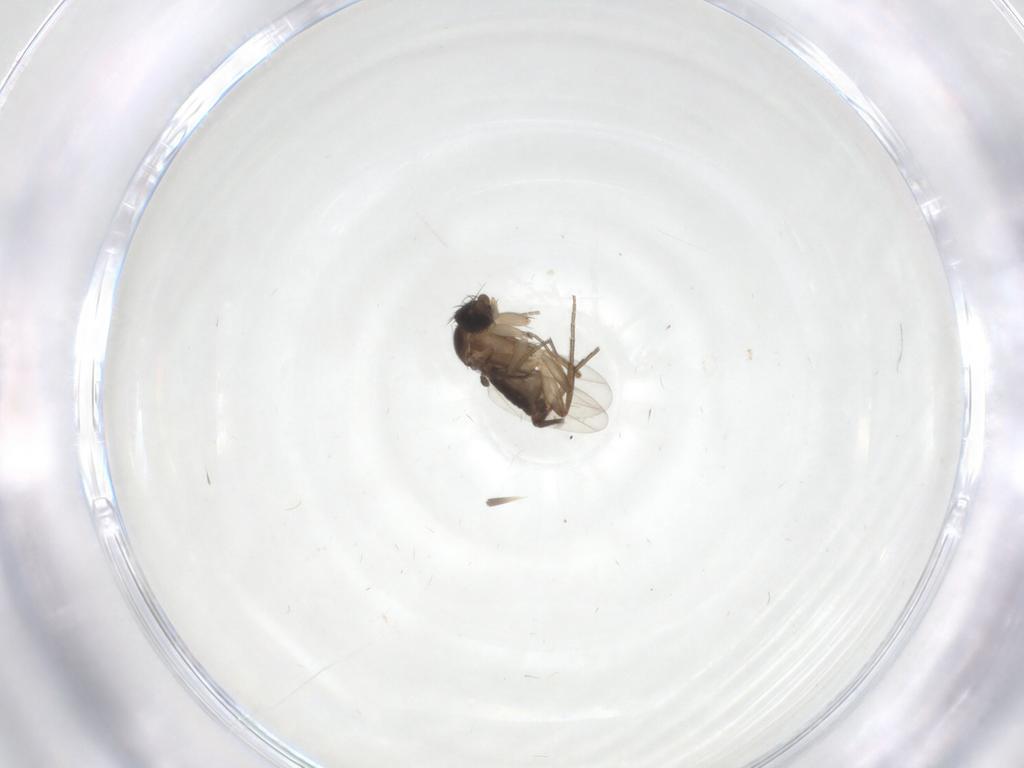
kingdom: Animalia
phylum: Arthropoda
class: Insecta
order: Diptera
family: Phoridae
